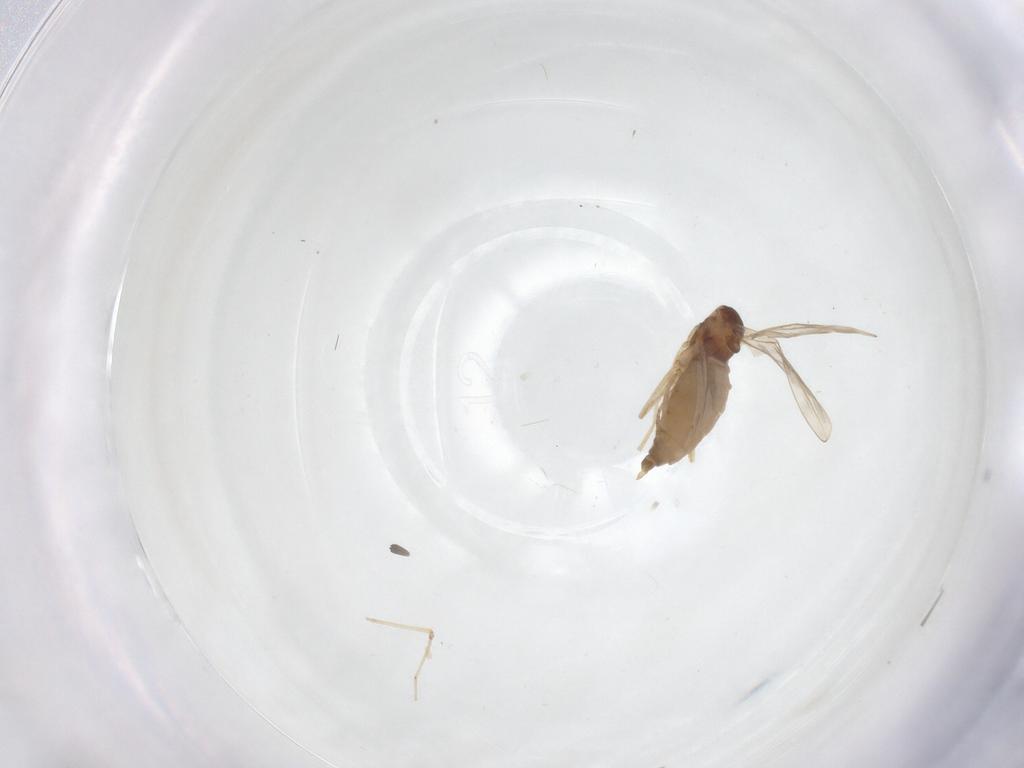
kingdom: Animalia
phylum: Arthropoda
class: Insecta
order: Diptera
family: Cecidomyiidae
